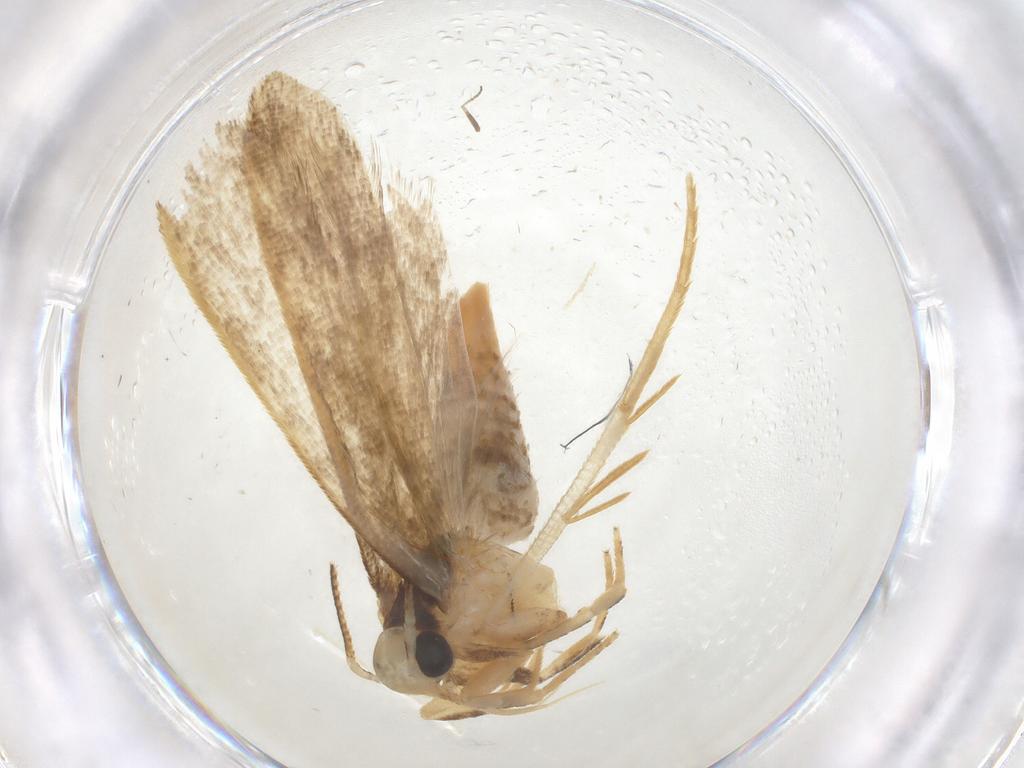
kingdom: Animalia
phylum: Arthropoda
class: Insecta
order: Lepidoptera
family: Gelechiidae
